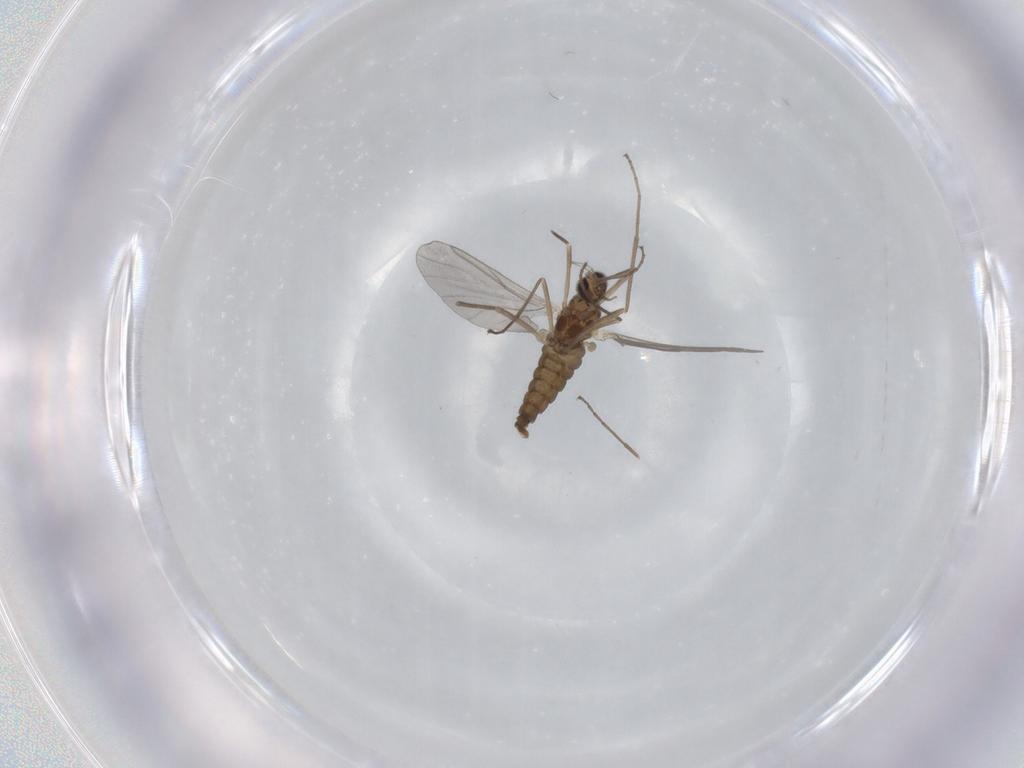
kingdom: Animalia
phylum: Arthropoda
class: Insecta
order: Diptera
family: Cecidomyiidae
